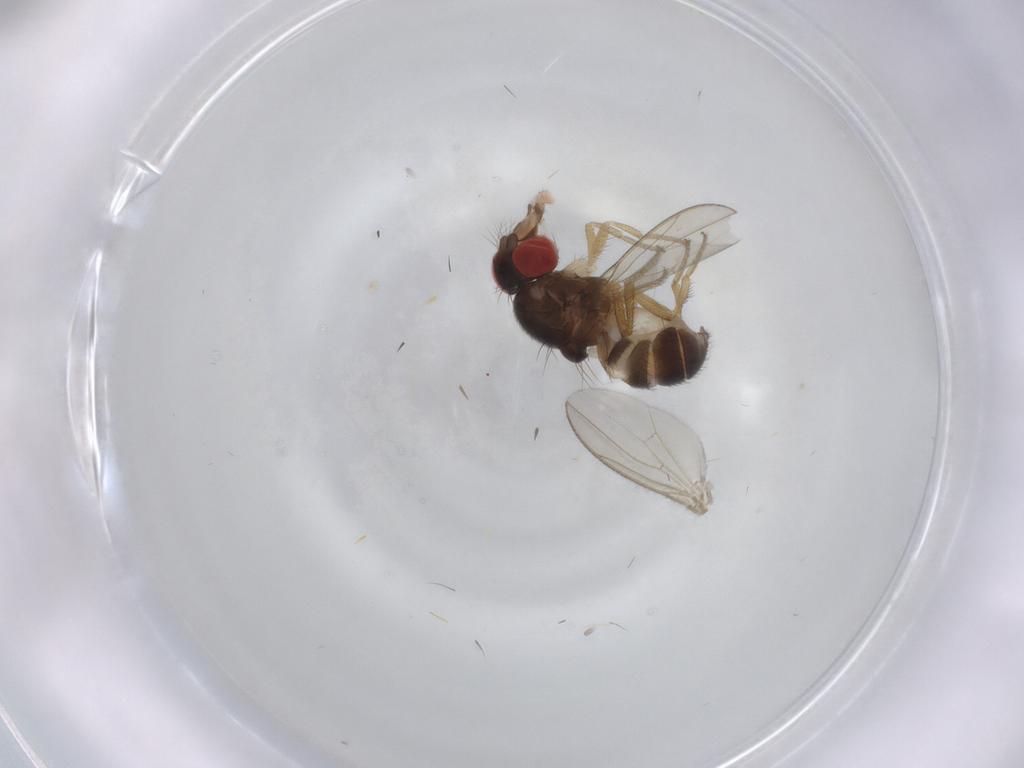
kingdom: Animalia
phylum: Arthropoda
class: Insecta
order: Diptera
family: Drosophilidae
